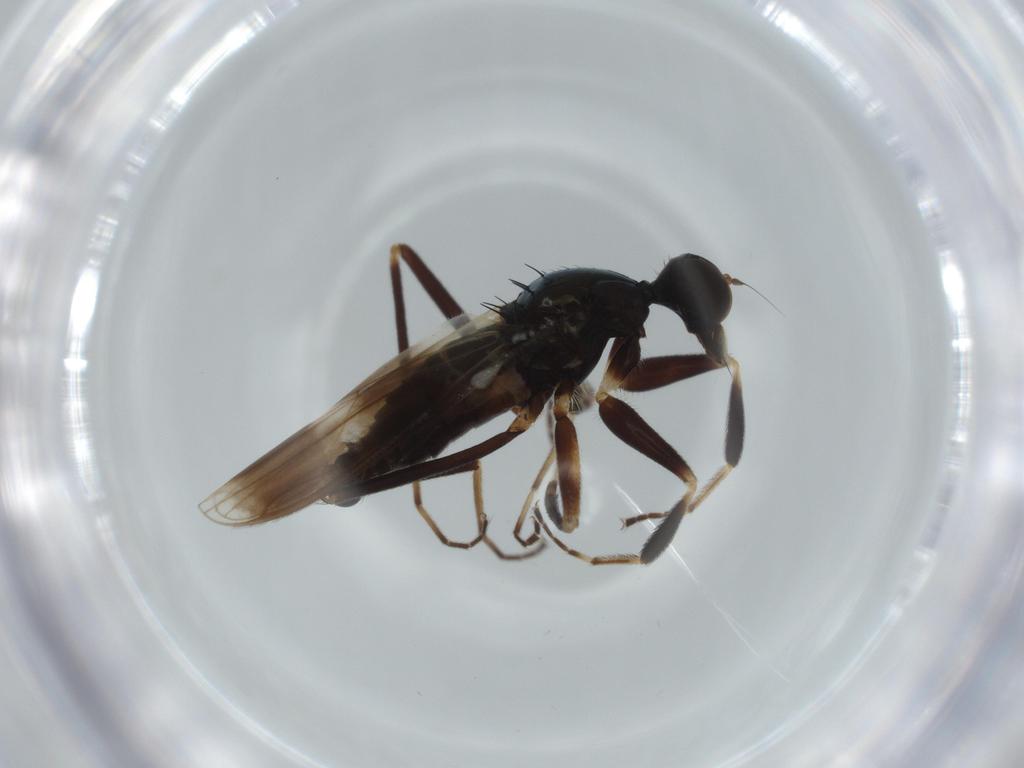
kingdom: Animalia
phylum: Arthropoda
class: Insecta
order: Diptera
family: Hybotidae
